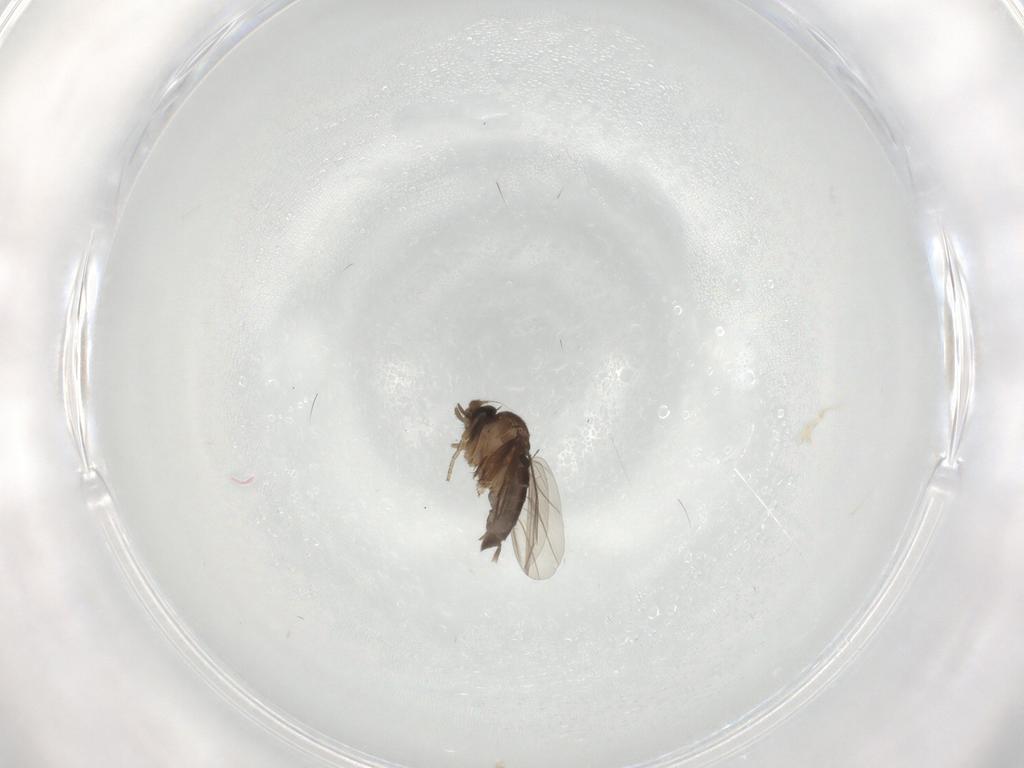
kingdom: Animalia
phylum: Arthropoda
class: Insecta
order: Diptera
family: Phoridae
